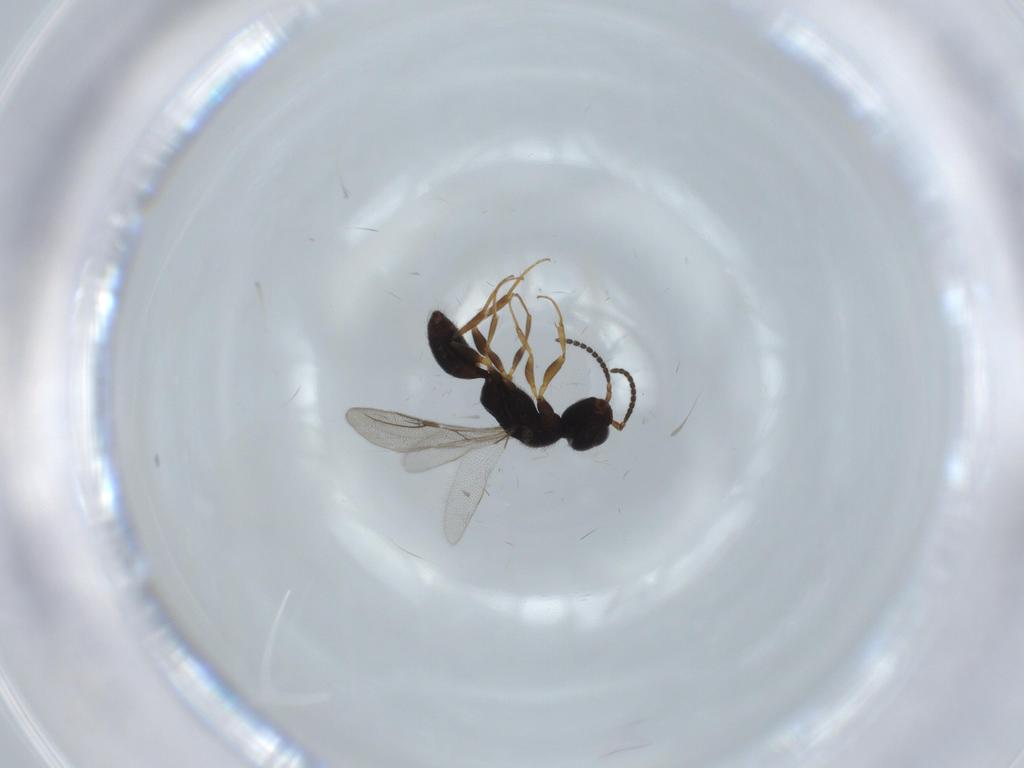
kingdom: Animalia
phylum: Arthropoda
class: Insecta
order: Hymenoptera
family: Bethylidae
